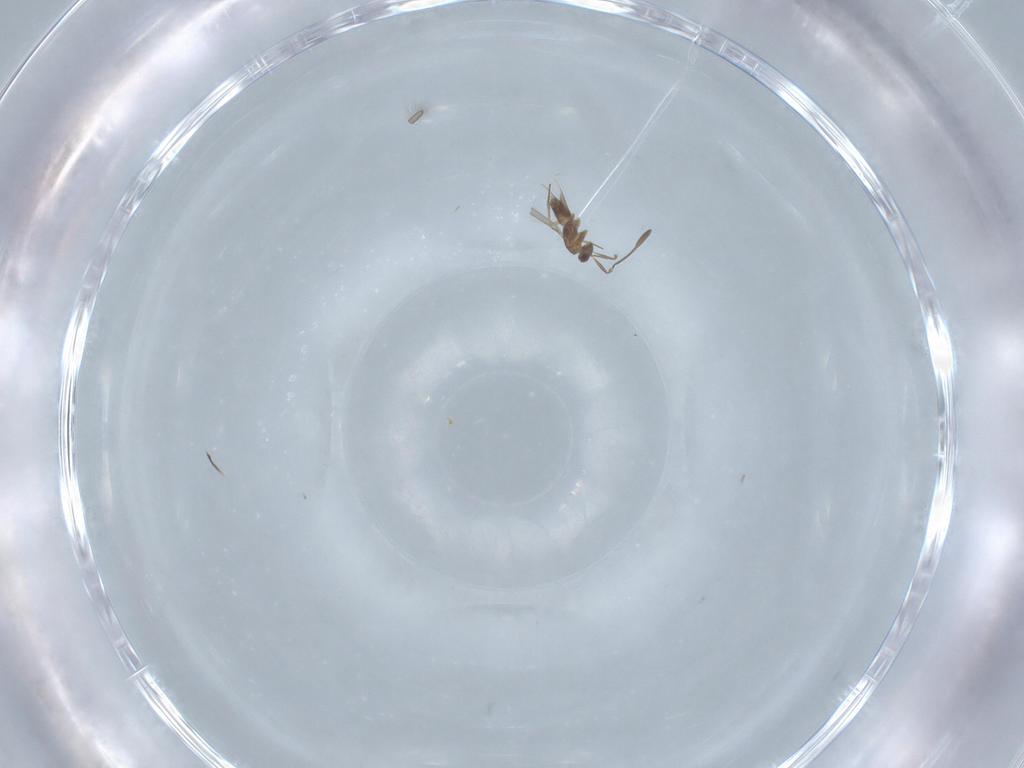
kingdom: Animalia
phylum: Arthropoda
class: Insecta
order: Hymenoptera
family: Mymaridae
